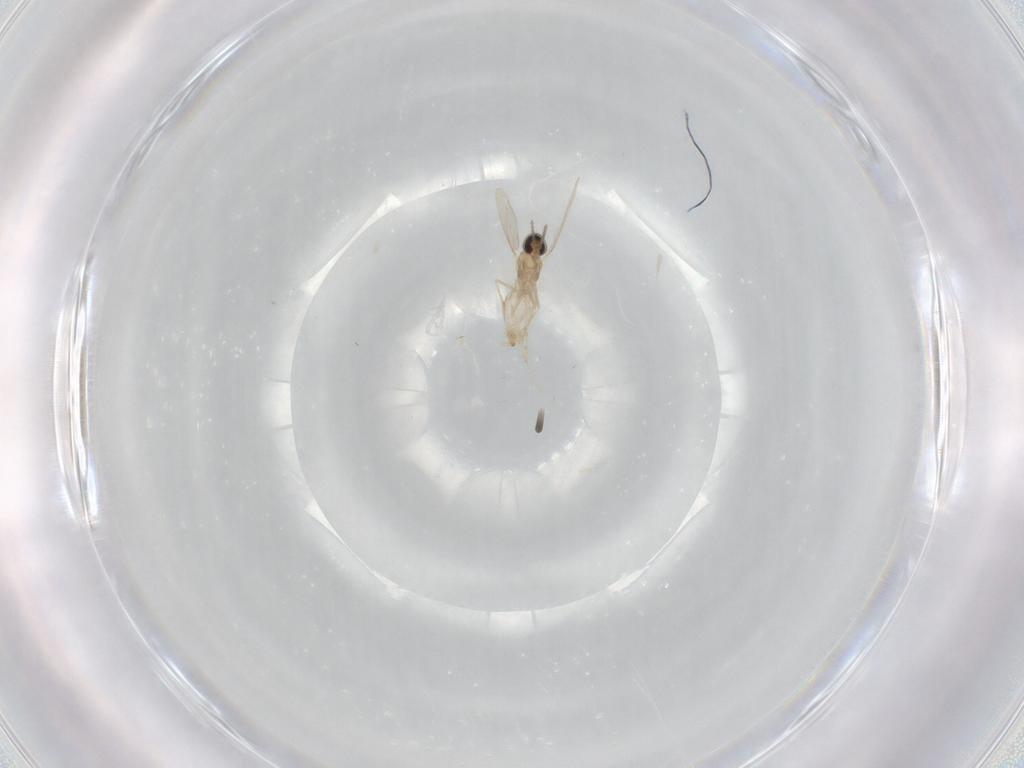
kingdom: Animalia
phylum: Arthropoda
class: Insecta
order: Diptera
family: Cecidomyiidae
